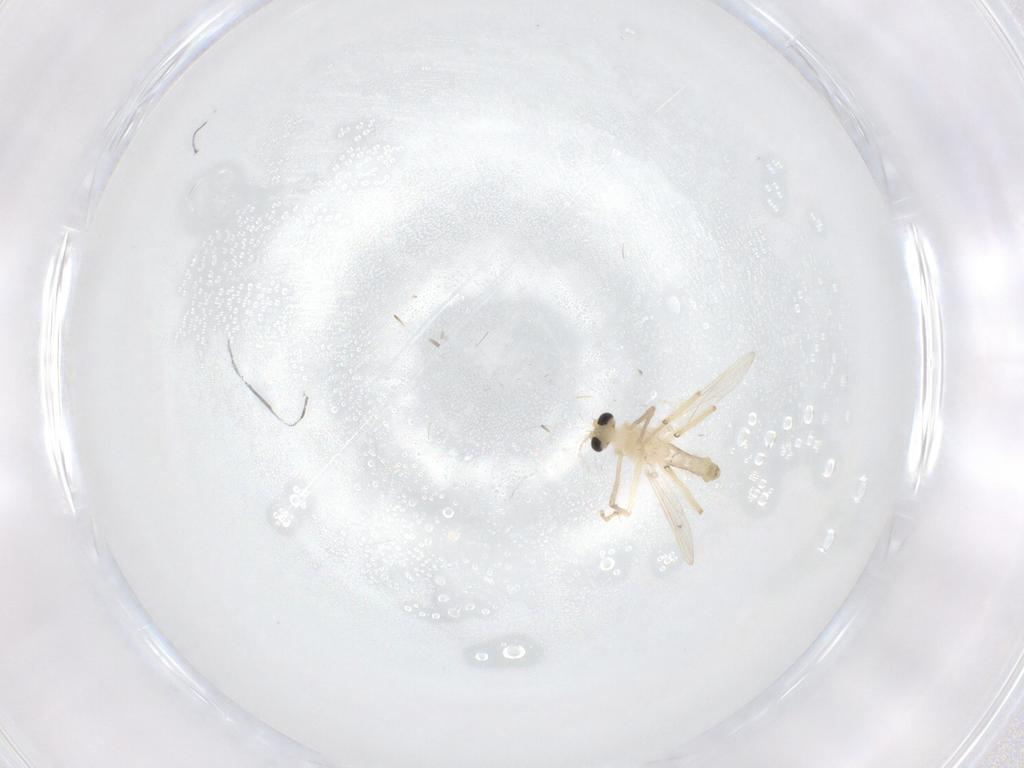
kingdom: Animalia
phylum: Arthropoda
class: Insecta
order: Diptera
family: Chironomidae
